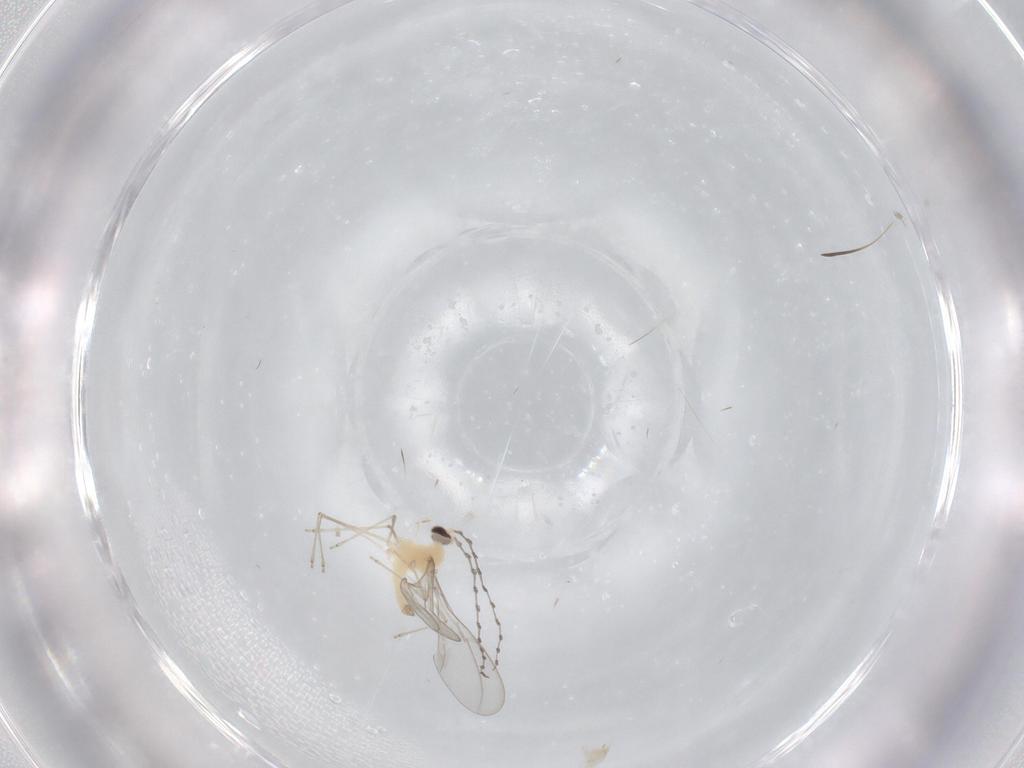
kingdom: Animalia
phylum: Arthropoda
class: Insecta
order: Diptera
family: Cecidomyiidae
